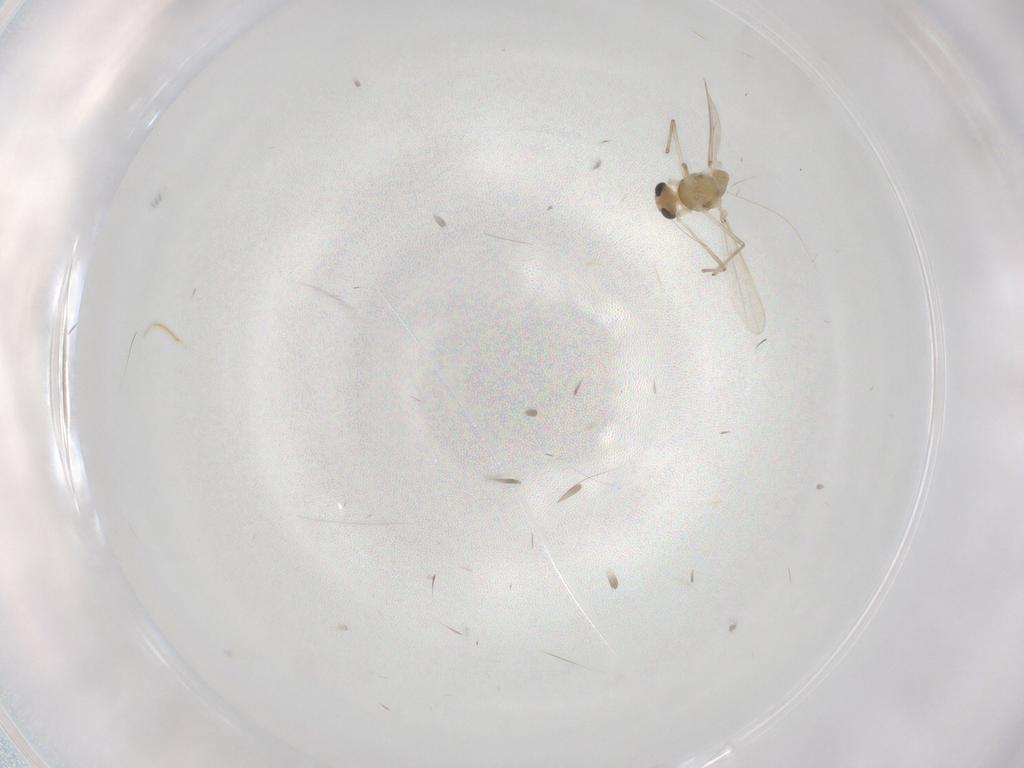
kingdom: Animalia
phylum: Arthropoda
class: Insecta
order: Diptera
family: Chironomidae
